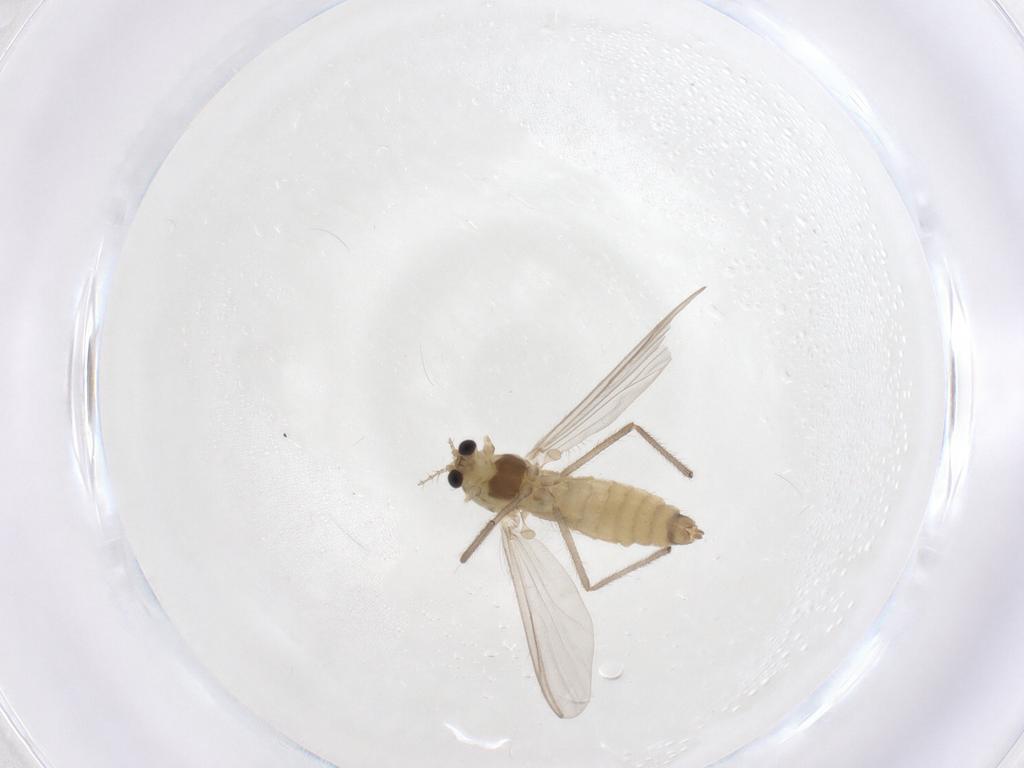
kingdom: Animalia
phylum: Arthropoda
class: Insecta
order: Diptera
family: Chironomidae
